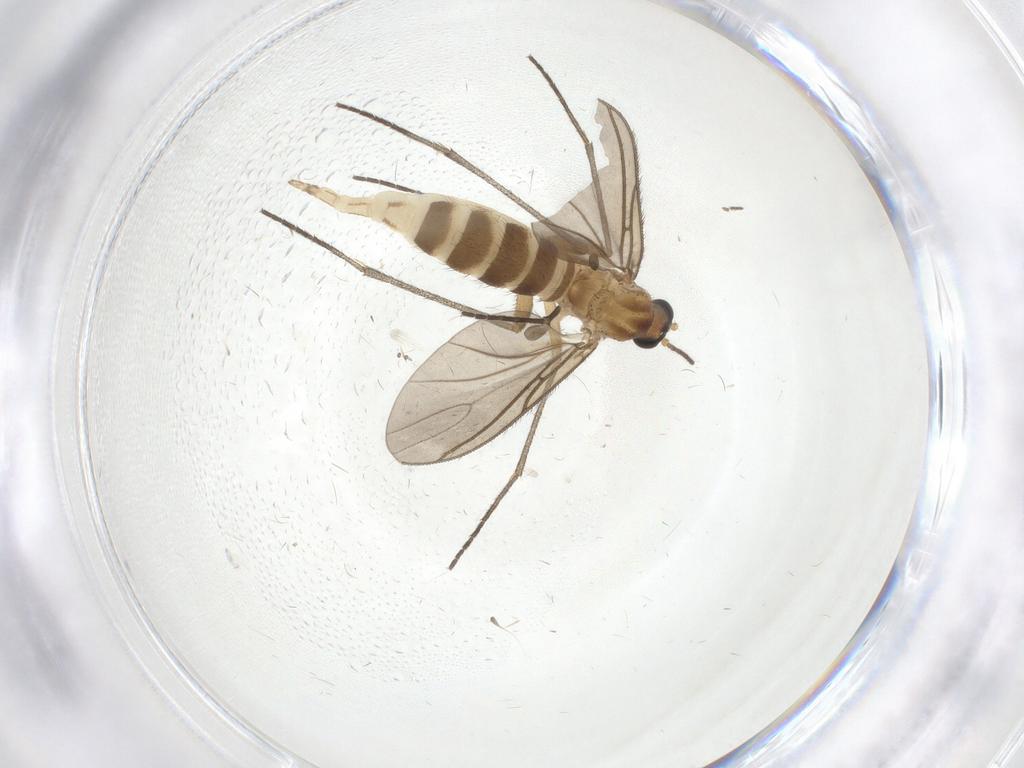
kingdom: Animalia
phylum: Arthropoda
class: Insecta
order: Diptera
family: Sciaridae
